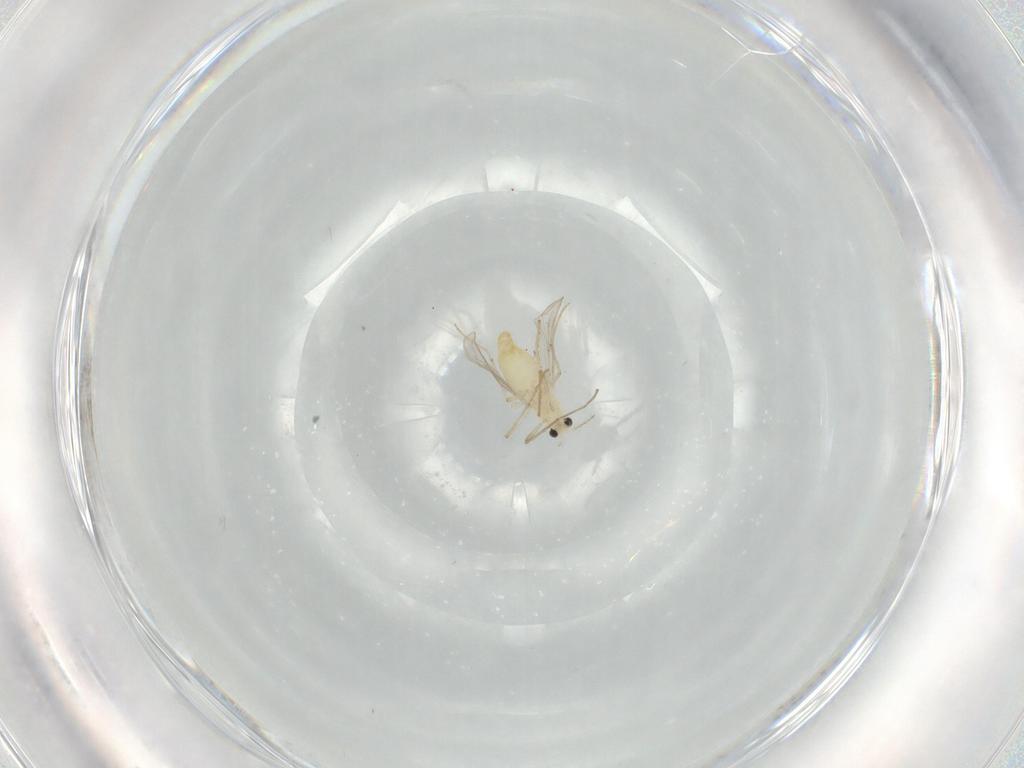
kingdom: Animalia
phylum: Arthropoda
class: Insecta
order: Diptera
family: Chironomidae
